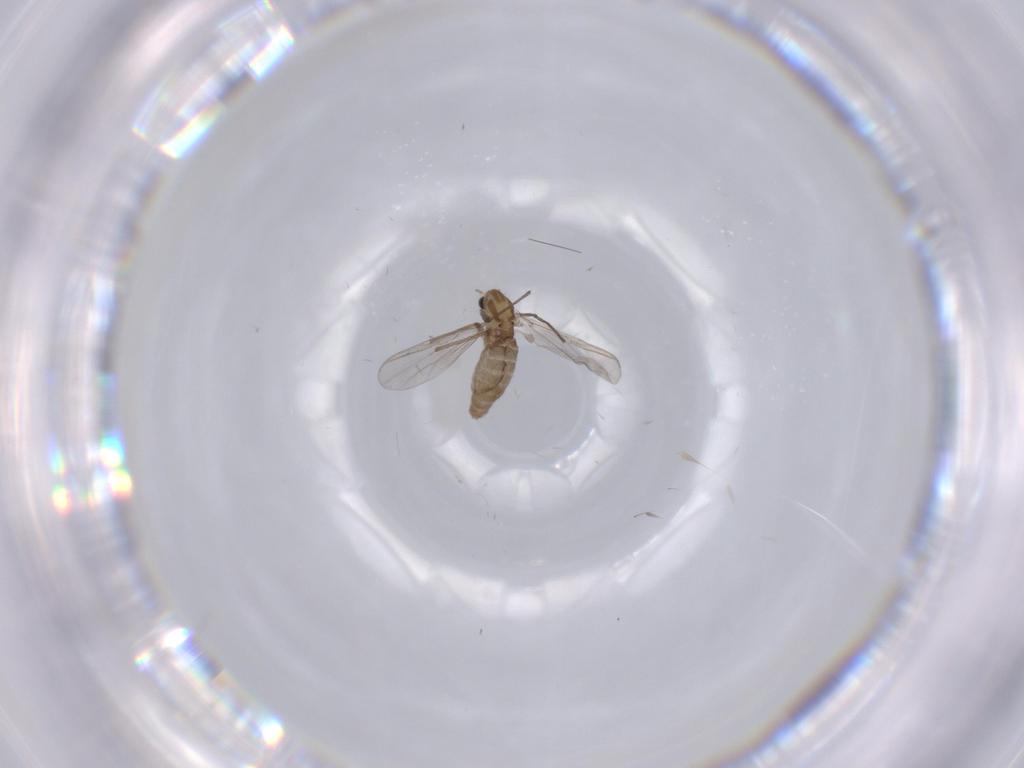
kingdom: Animalia
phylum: Arthropoda
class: Insecta
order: Diptera
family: Chironomidae
